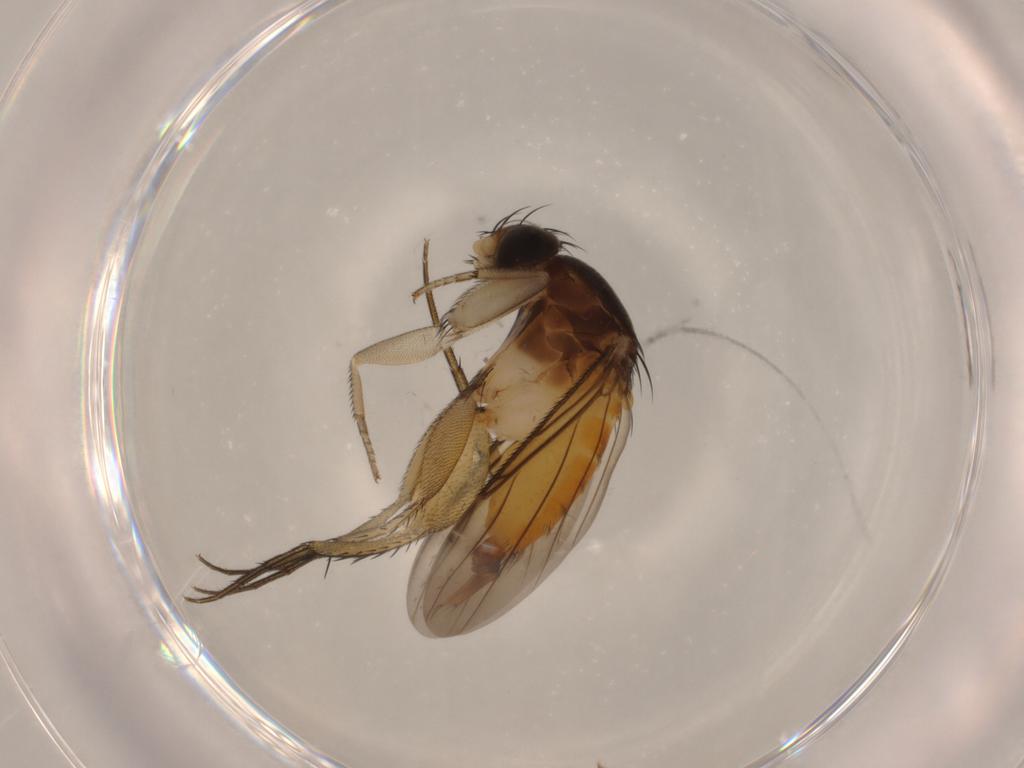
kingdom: Animalia
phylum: Arthropoda
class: Insecta
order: Diptera
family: Phoridae
